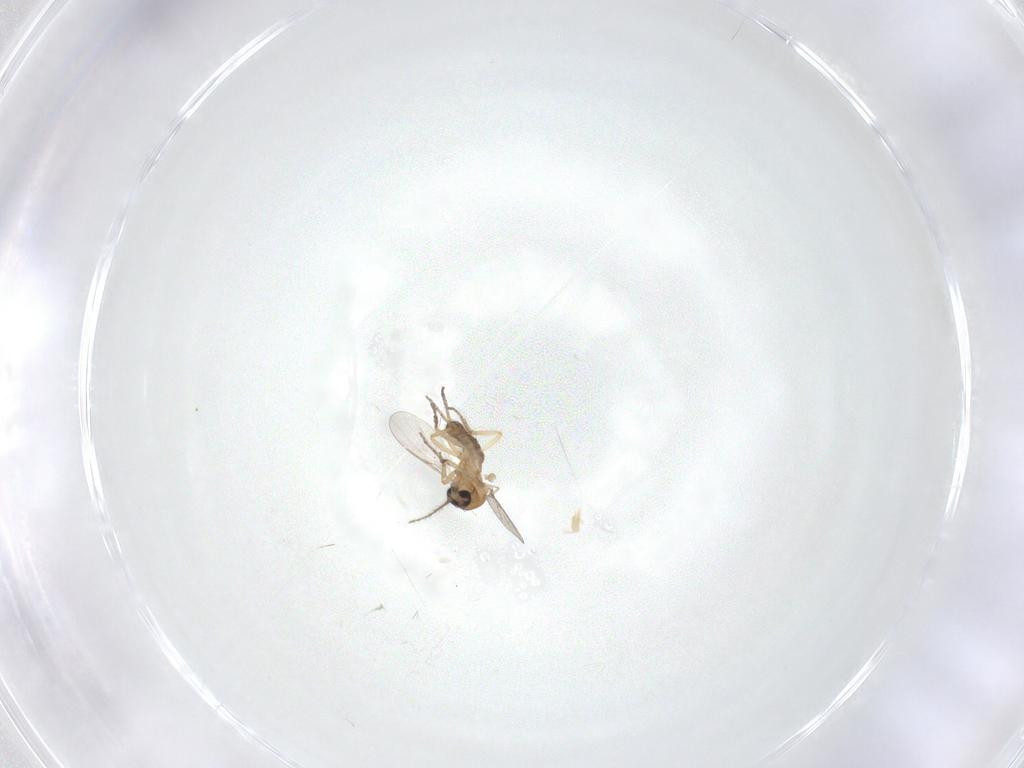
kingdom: Animalia
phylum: Arthropoda
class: Insecta
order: Diptera
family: Ceratopogonidae
